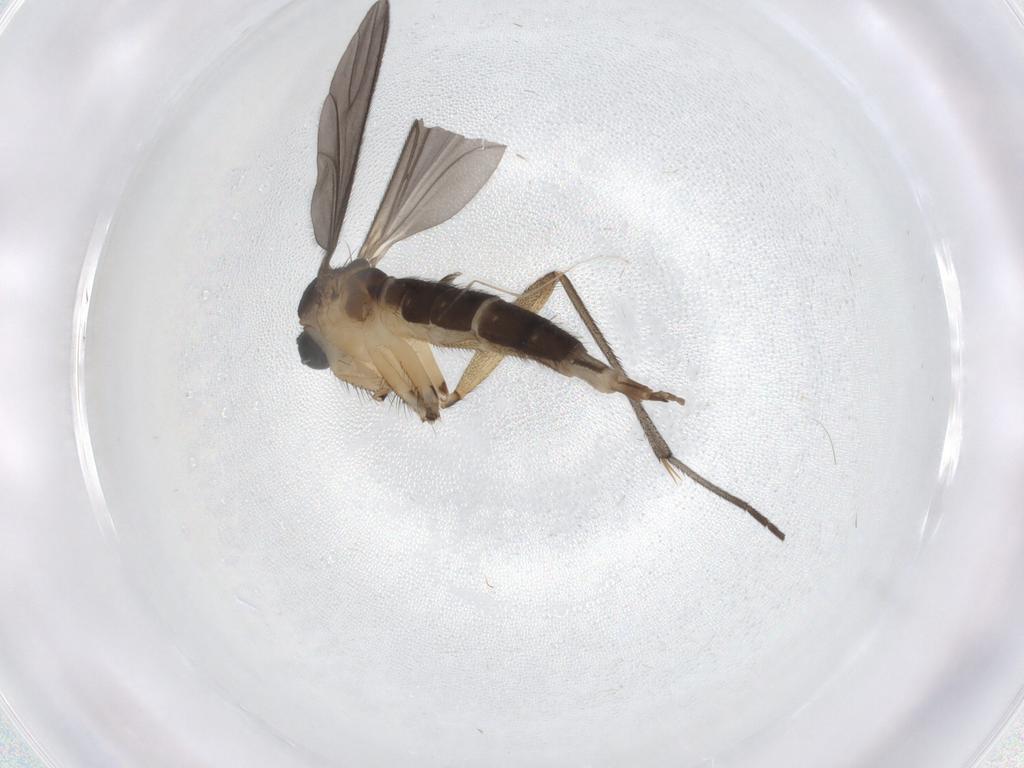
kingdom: Animalia
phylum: Arthropoda
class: Insecta
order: Diptera
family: Sciaridae
